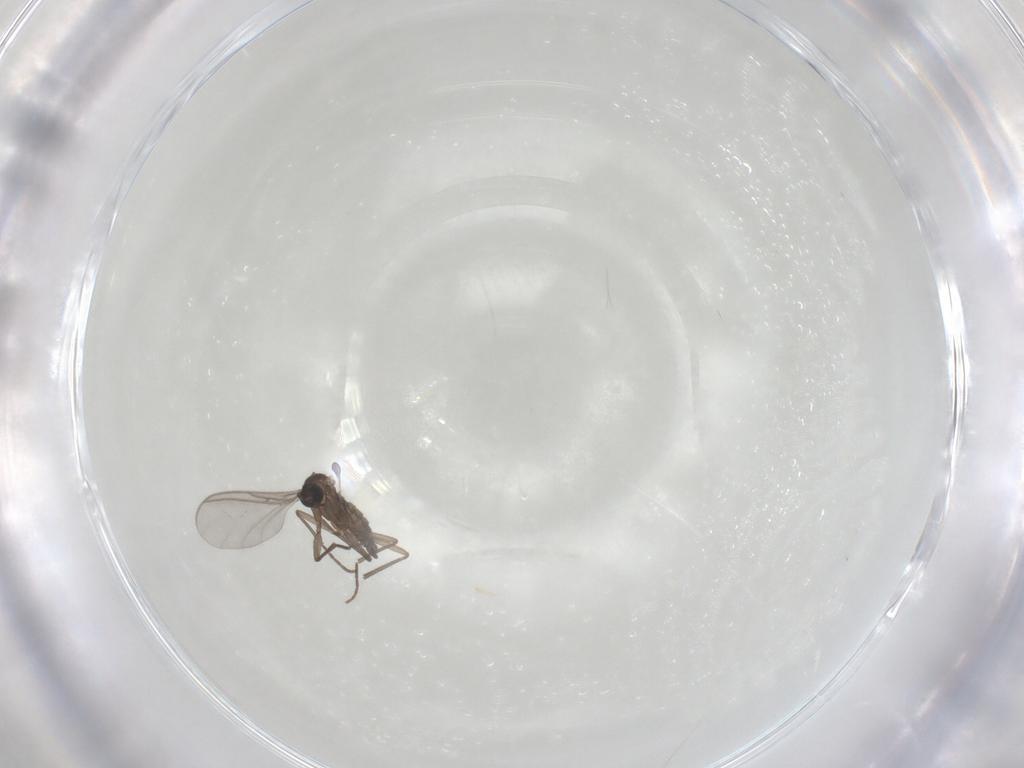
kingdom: Animalia
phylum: Arthropoda
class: Insecta
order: Diptera
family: Sciaridae
